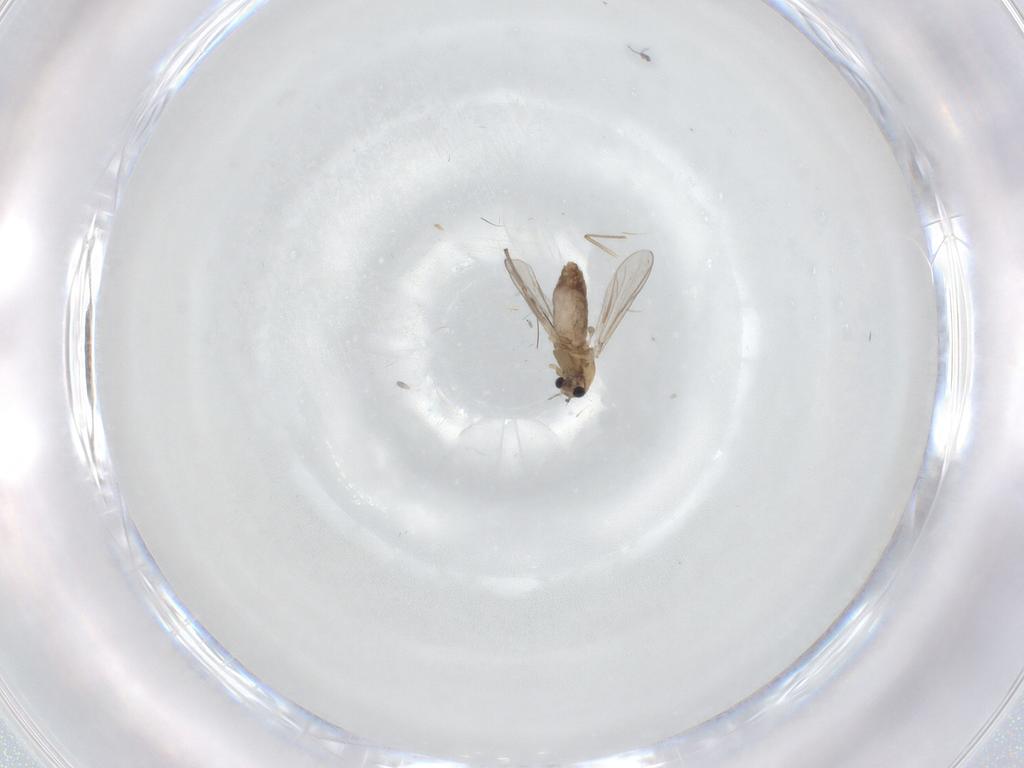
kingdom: Animalia
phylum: Arthropoda
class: Insecta
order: Diptera
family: Chironomidae
